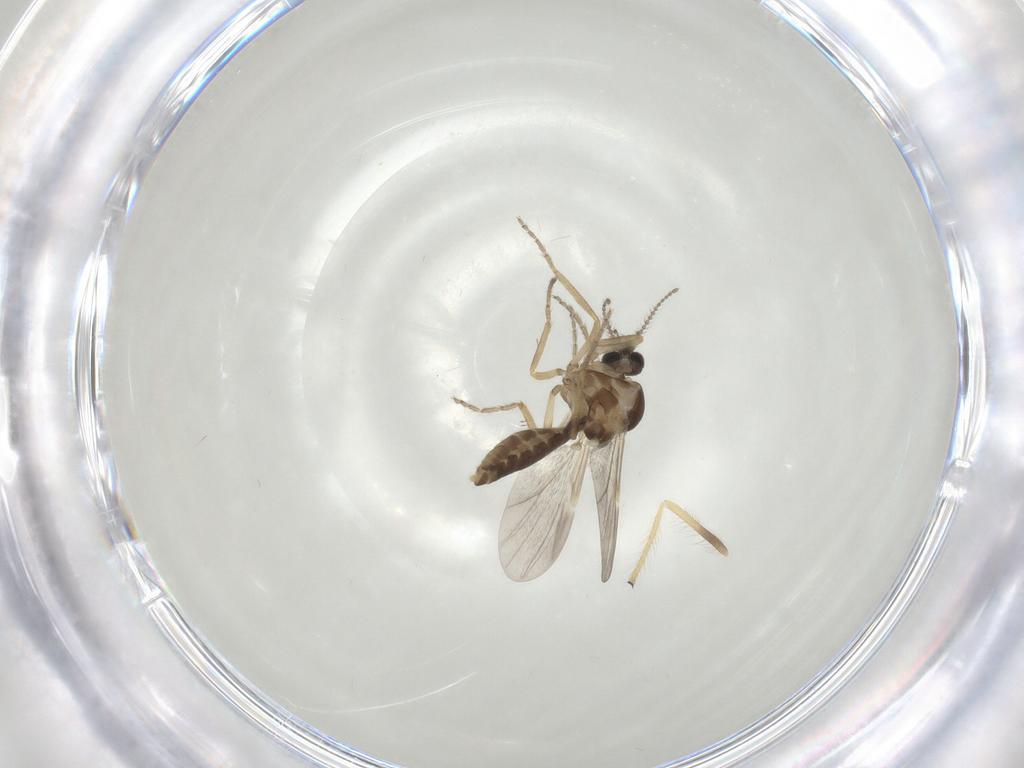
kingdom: Animalia
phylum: Arthropoda
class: Insecta
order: Diptera
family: Ceratopogonidae
